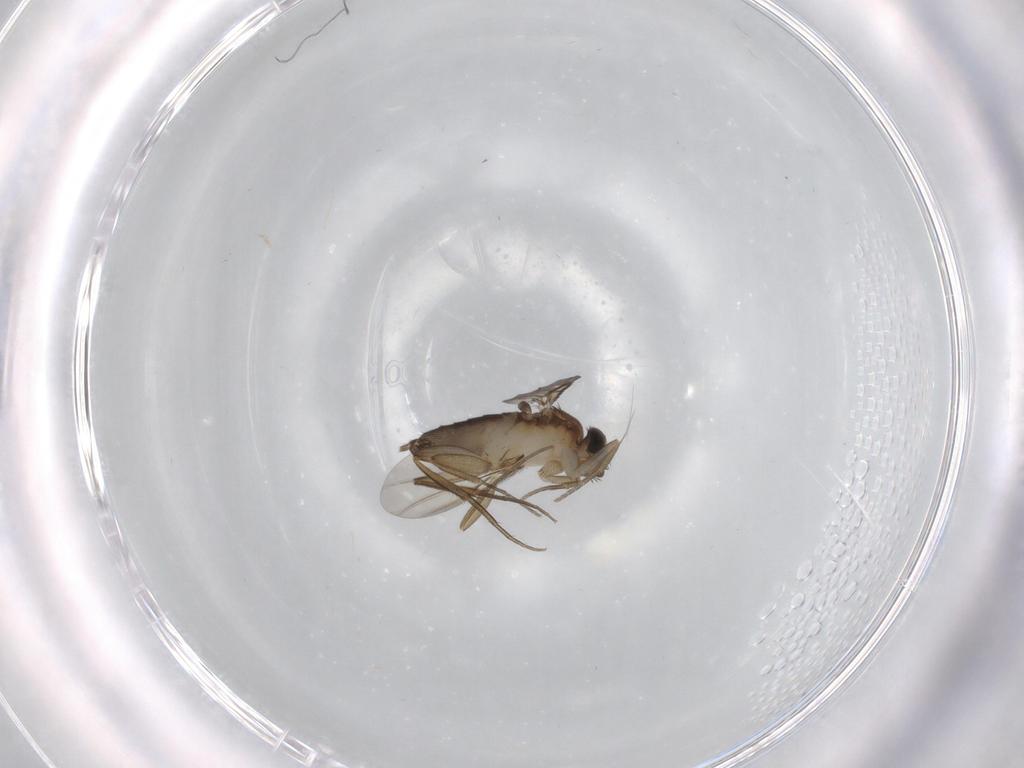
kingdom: Animalia
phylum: Arthropoda
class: Insecta
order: Diptera
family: Phoridae
